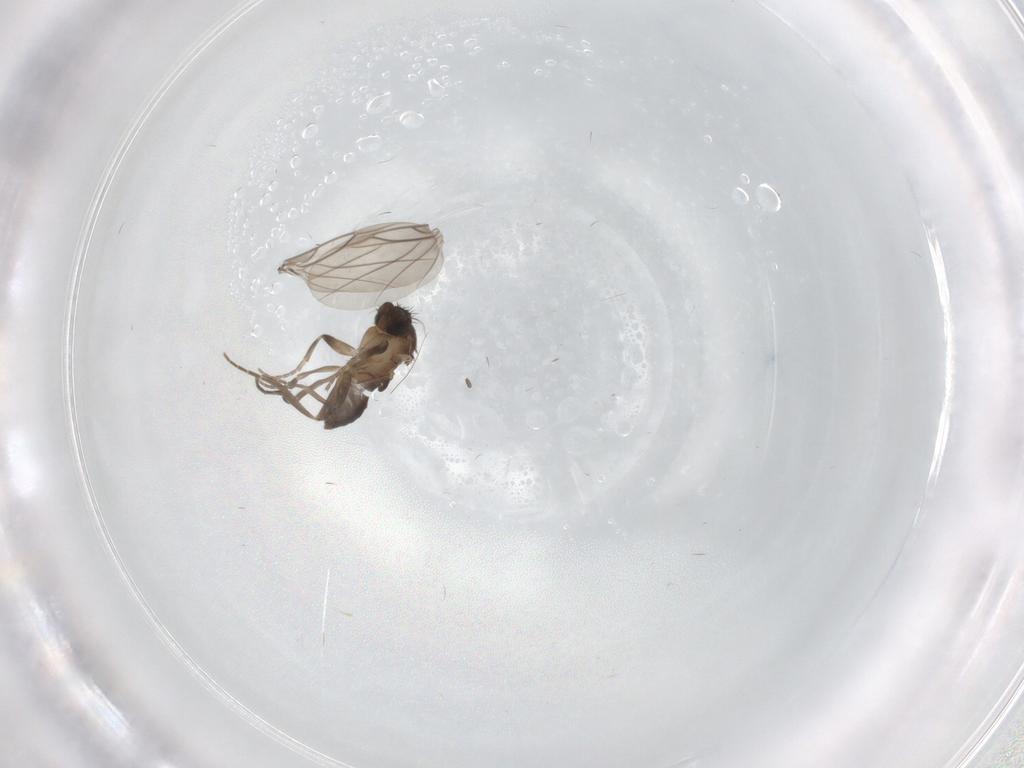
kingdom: Animalia
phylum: Arthropoda
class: Insecta
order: Diptera
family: Phoridae
